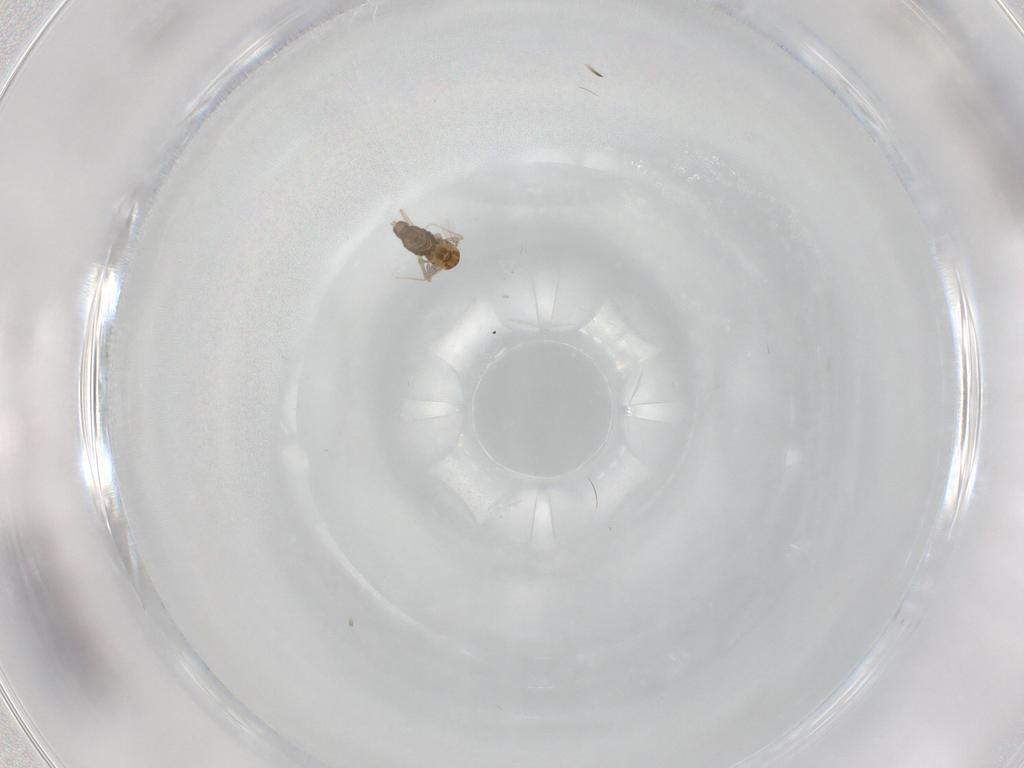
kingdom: Animalia
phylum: Arthropoda
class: Insecta
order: Diptera
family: Chironomidae
